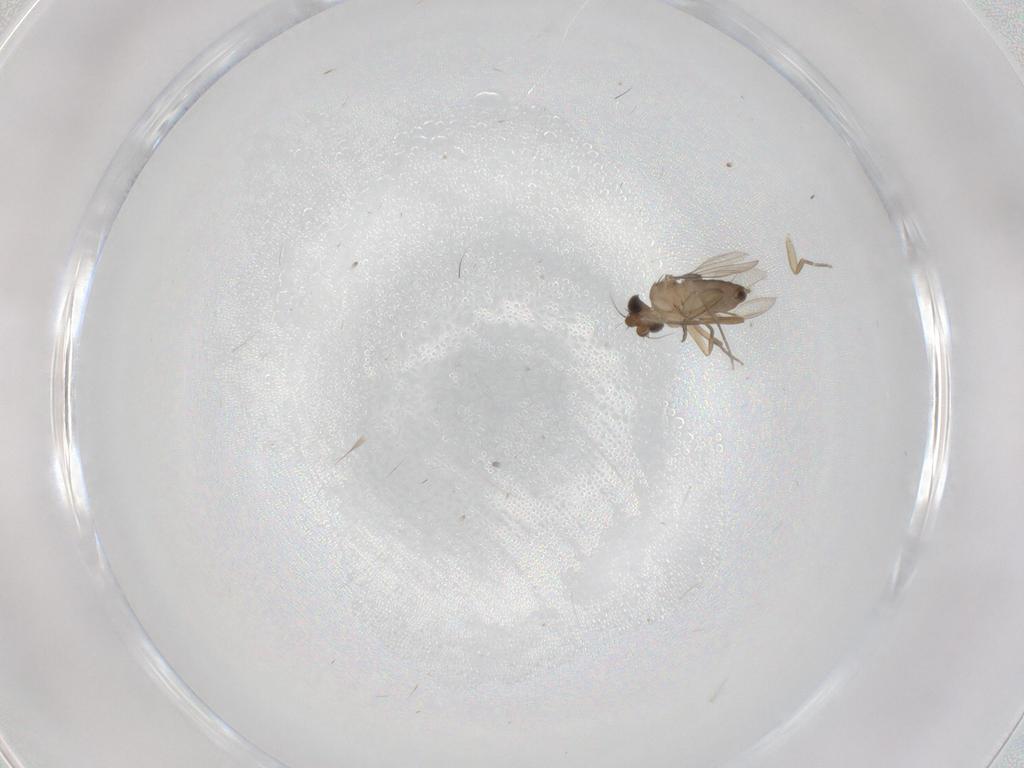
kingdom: Animalia
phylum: Arthropoda
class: Insecta
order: Diptera
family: Phoridae
